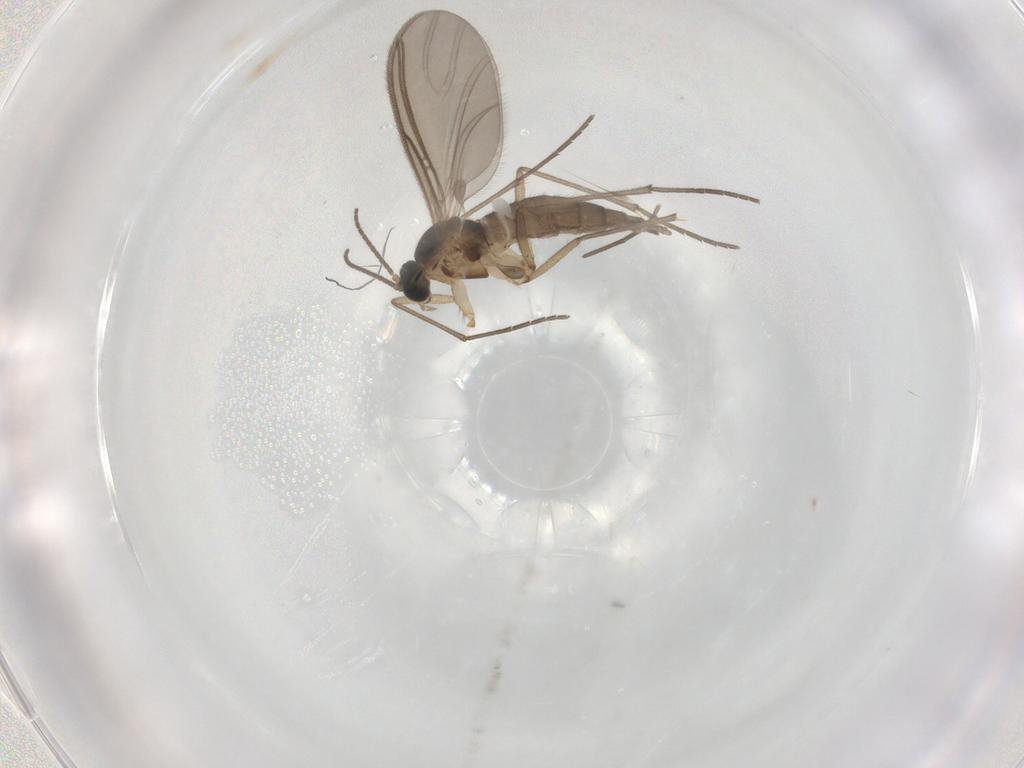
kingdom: Animalia
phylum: Arthropoda
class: Insecta
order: Diptera
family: Sciaridae
